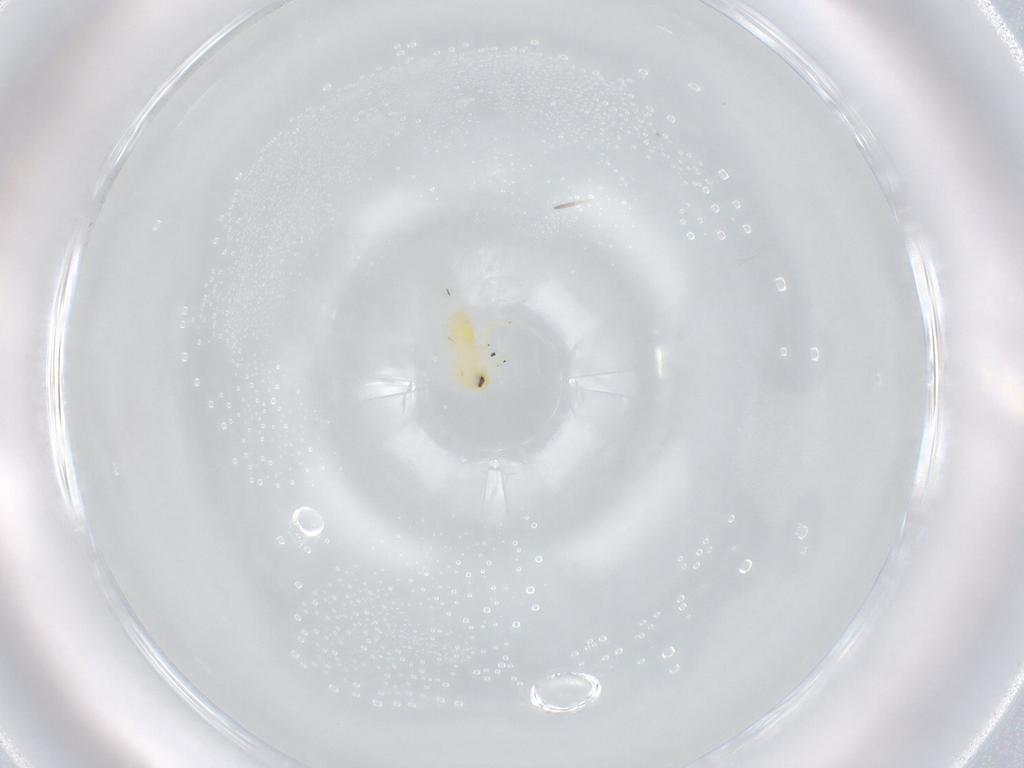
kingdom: Animalia
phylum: Arthropoda
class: Insecta
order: Hemiptera
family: Aleyrodidae
